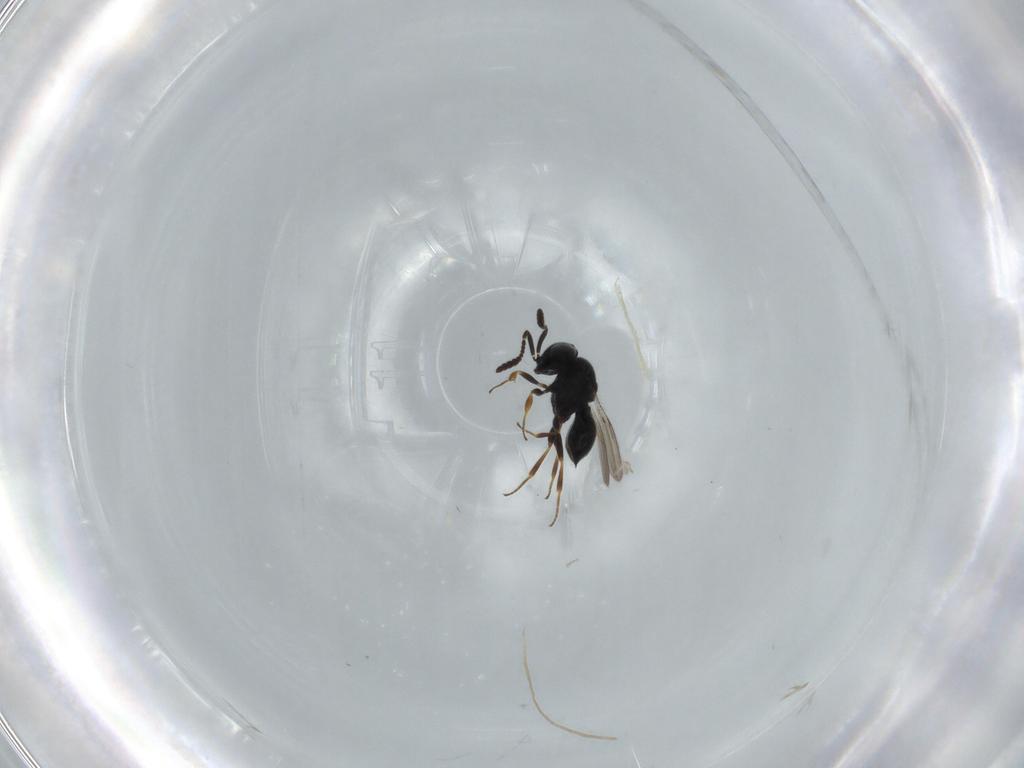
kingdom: Animalia
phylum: Arthropoda
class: Insecta
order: Hymenoptera
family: Scelionidae
